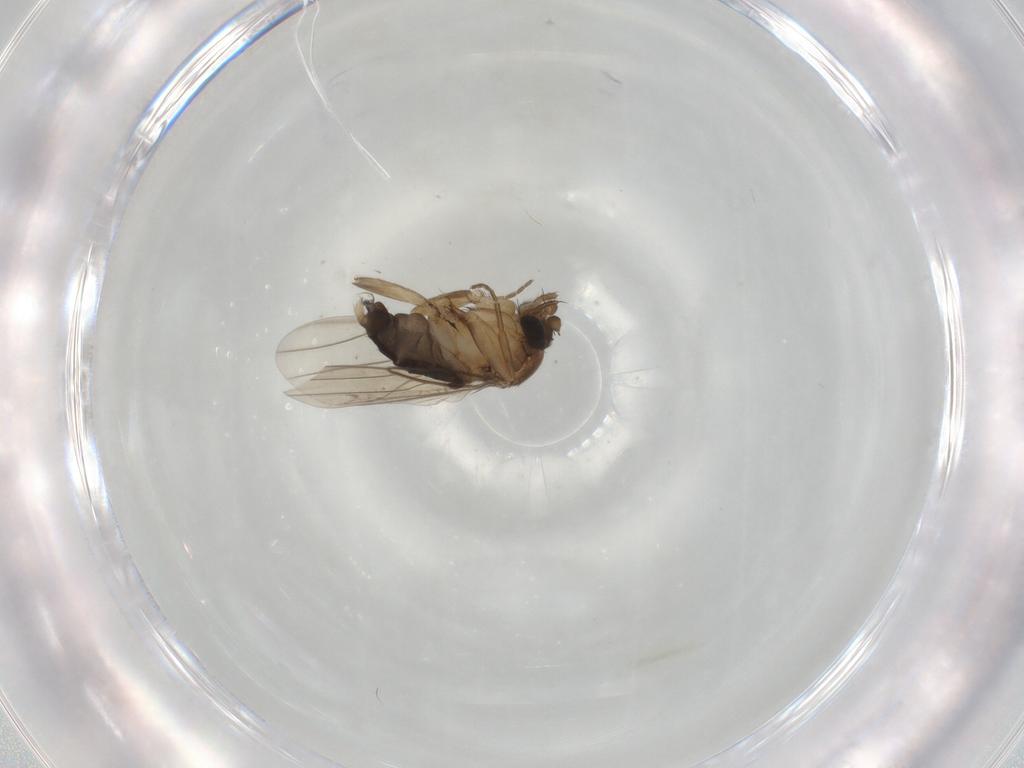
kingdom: Animalia
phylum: Arthropoda
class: Insecta
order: Diptera
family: Phoridae
